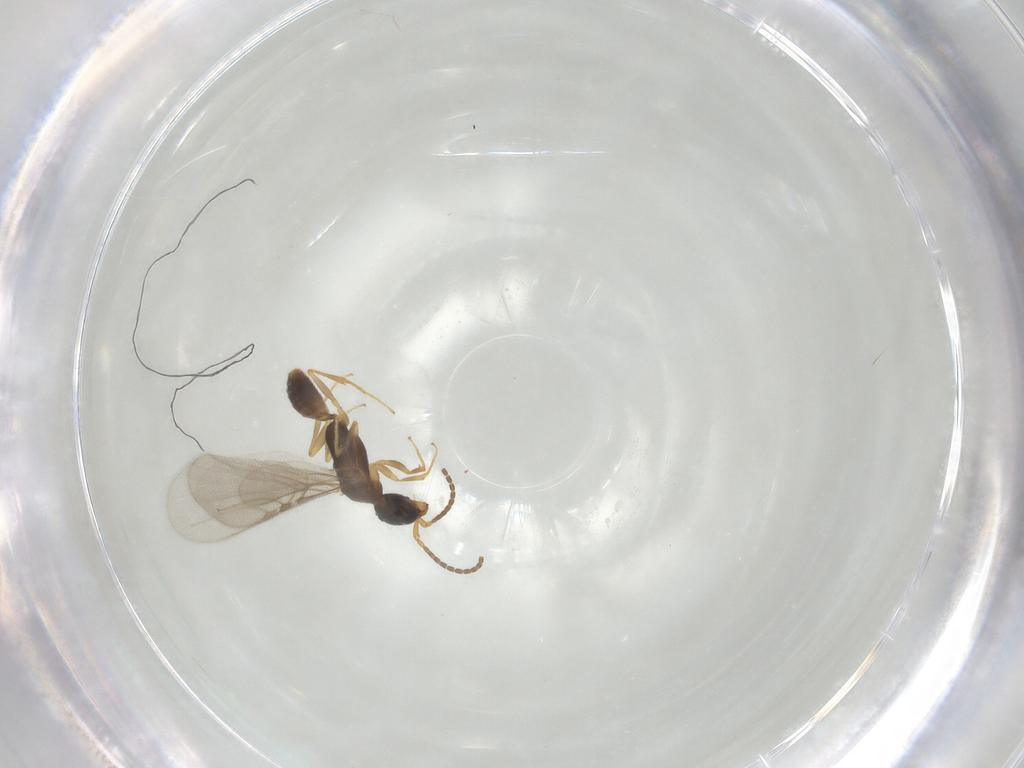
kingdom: Animalia
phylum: Arthropoda
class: Insecta
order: Hymenoptera
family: Bethylidae
